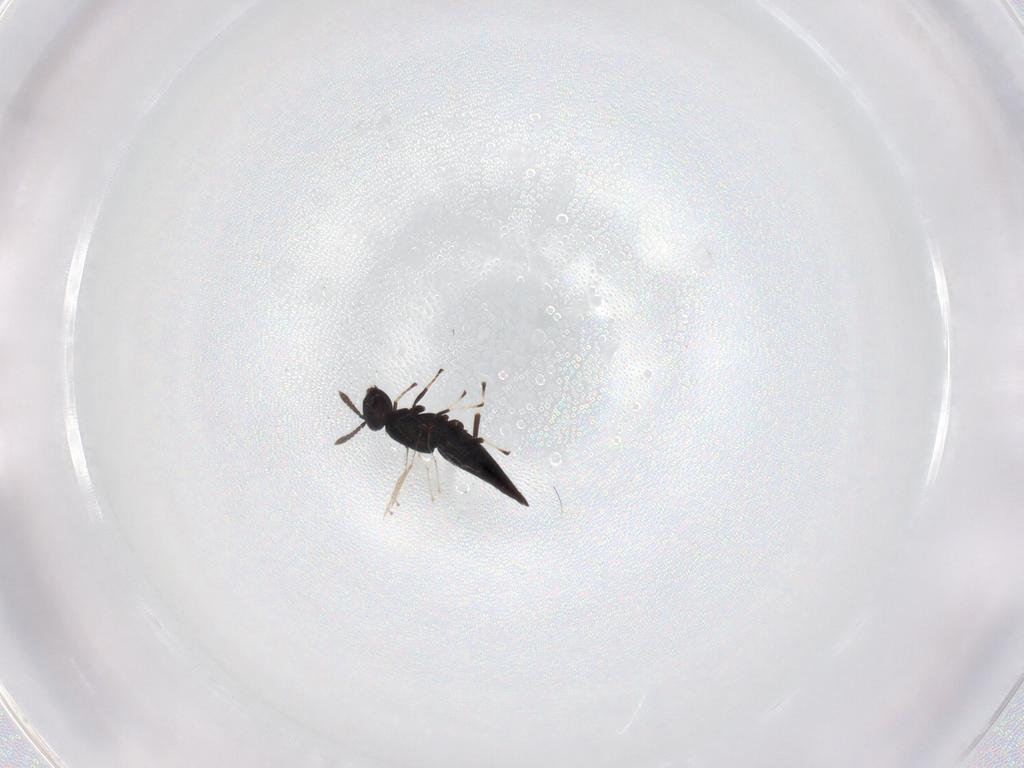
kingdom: Animalia
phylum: Arthropoda
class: Insecta
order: Hymenoptera
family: Eulophidae
